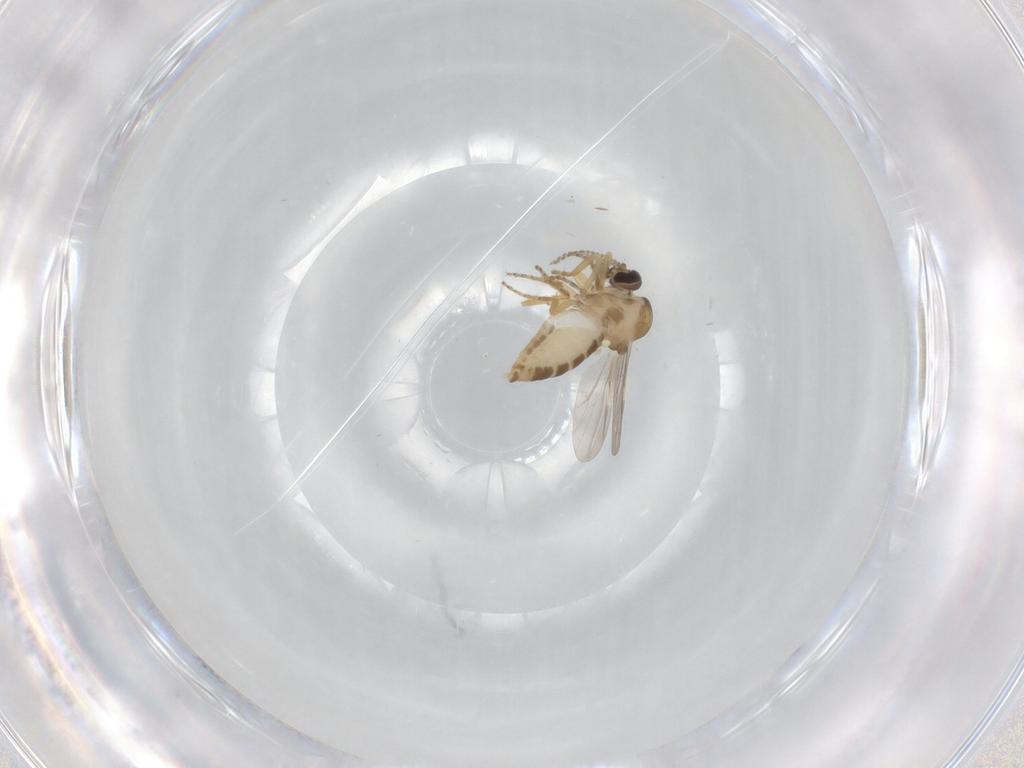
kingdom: Animalia
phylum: Arthropoda
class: Insecta
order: Diptera
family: Ceratopogonidae
